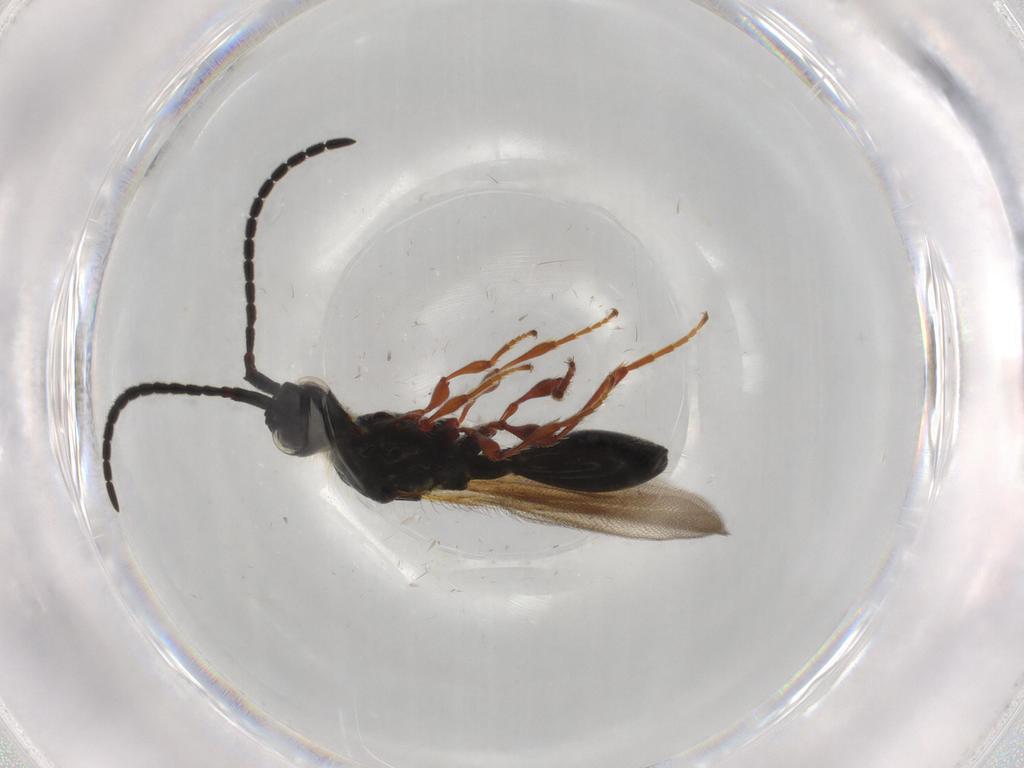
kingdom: Animalia
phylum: Arthropoda
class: Insecta
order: Hymenoptera
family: Diapriidae
